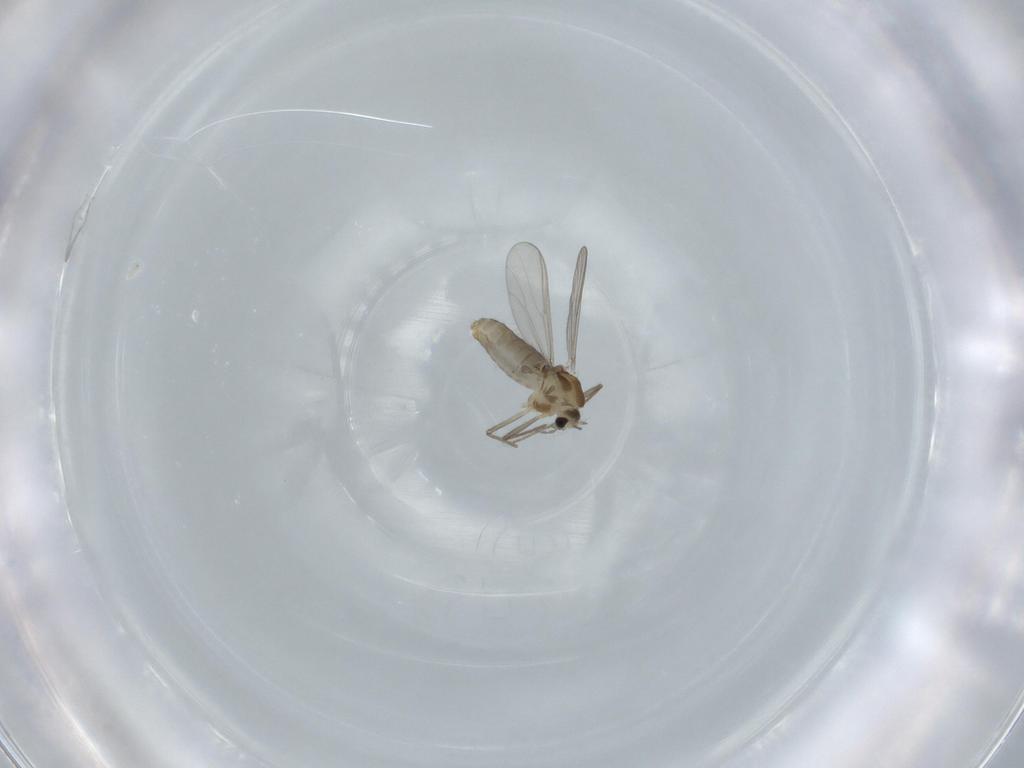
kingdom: Animalia
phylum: Arthropoda
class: Insecta
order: Diptera
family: Chironomidae
